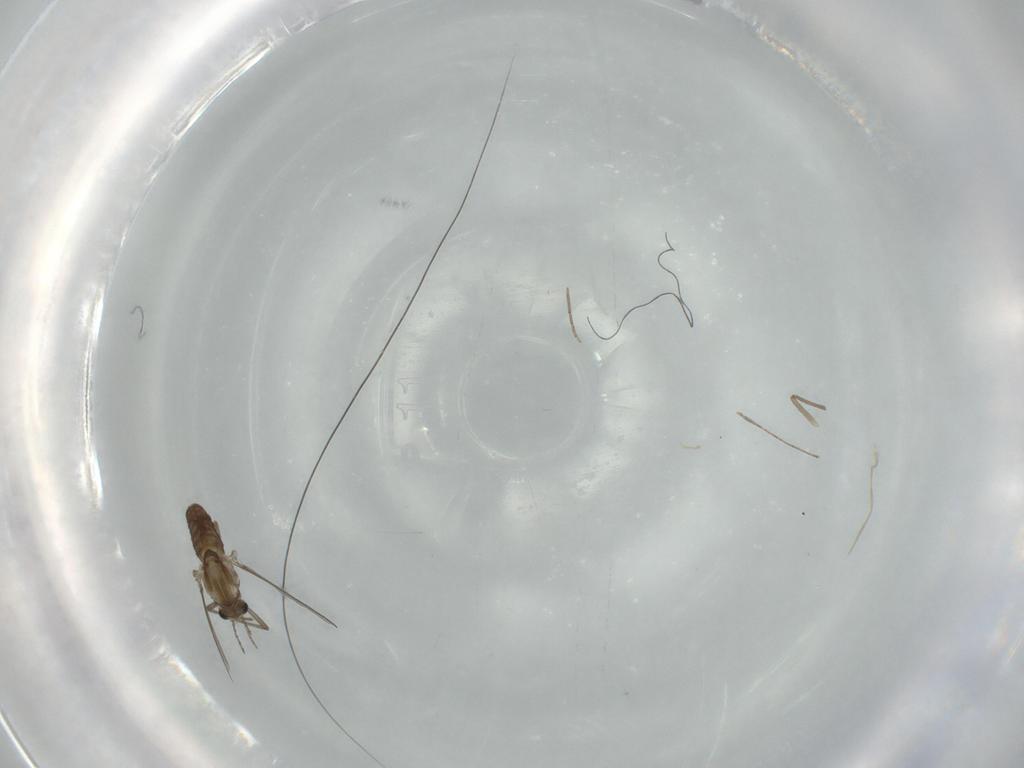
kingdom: Animalia
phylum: Arthropoda
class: Insecta
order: Diptera
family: Chironomidae
